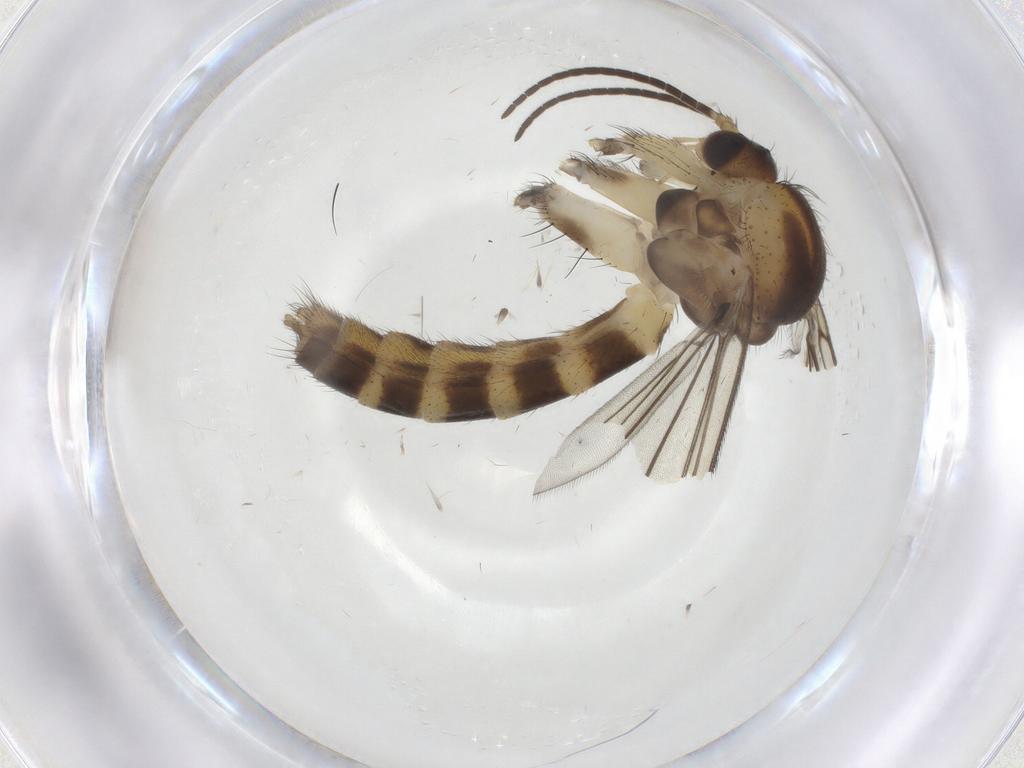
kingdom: Animalia
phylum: Arthropoda
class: Insecta
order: Diptera
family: Mycetophilidae
